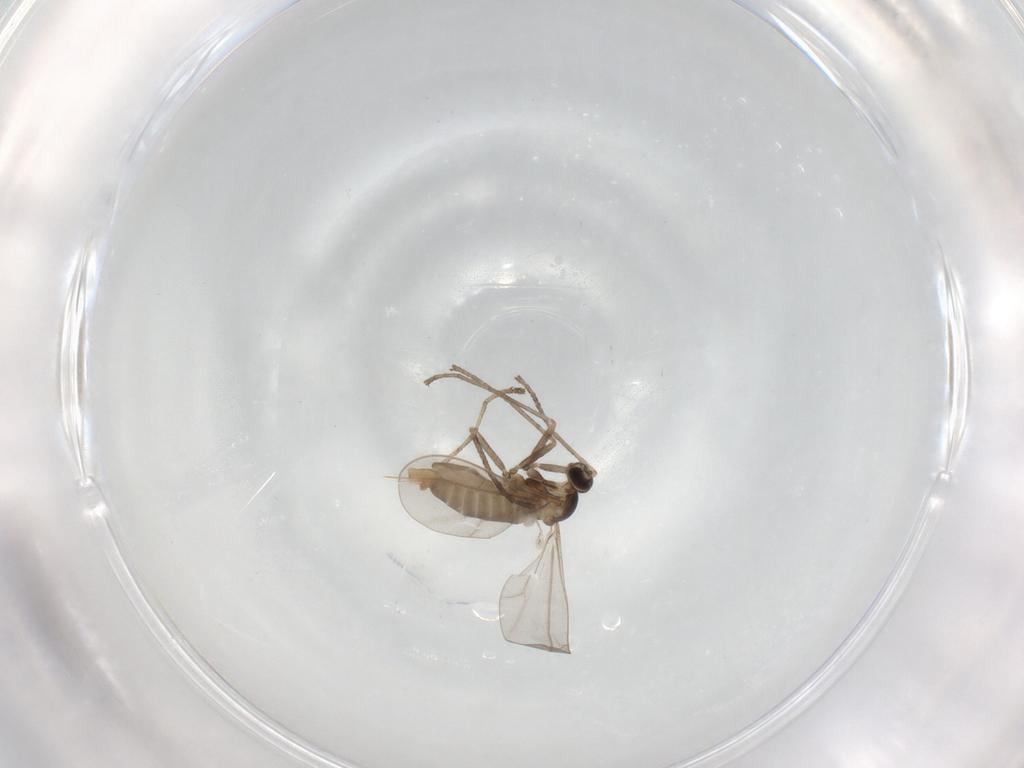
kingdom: Animalia
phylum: Arthropoda
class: Insecta
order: Diptera
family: Cecidomyiidae
